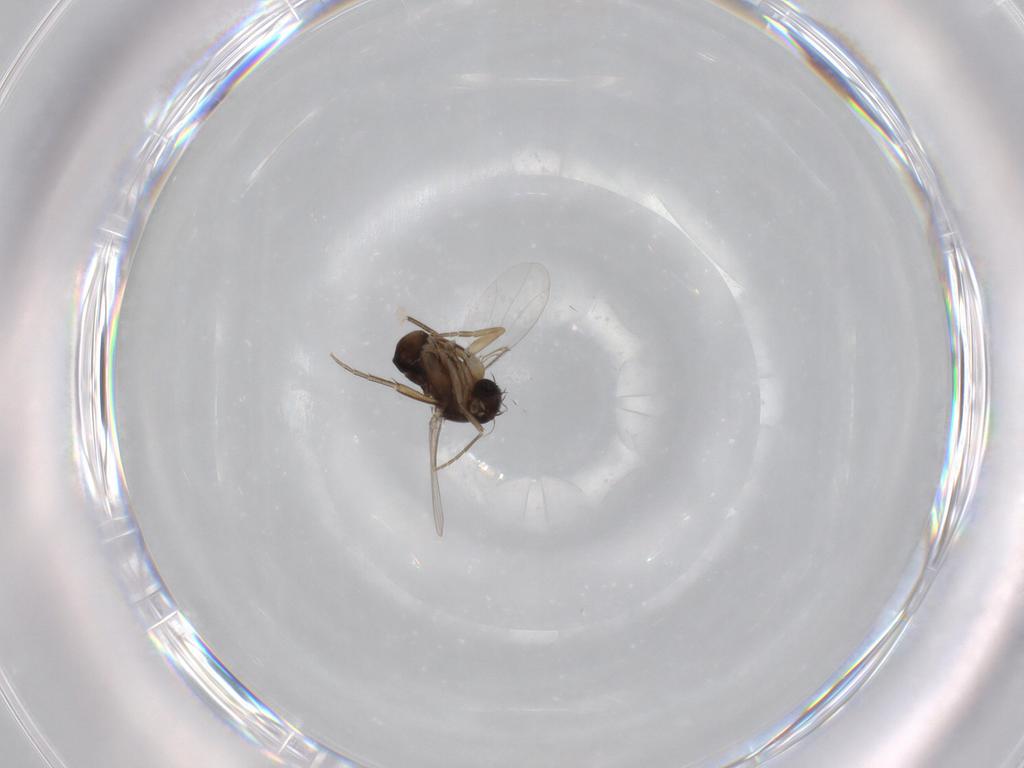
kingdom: Animalia
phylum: Arthropoda
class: Insecta
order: Diptera
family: Phoridae
